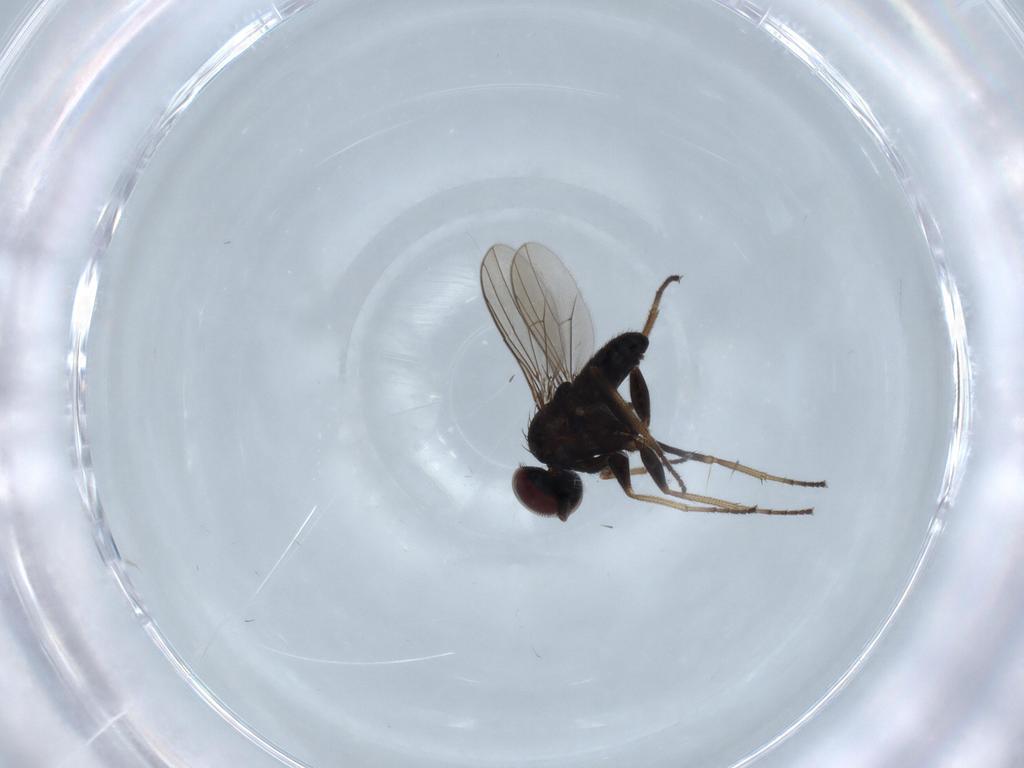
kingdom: Animalia
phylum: Arthropoda
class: Insecta
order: Diptera
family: Dolichopodidae
